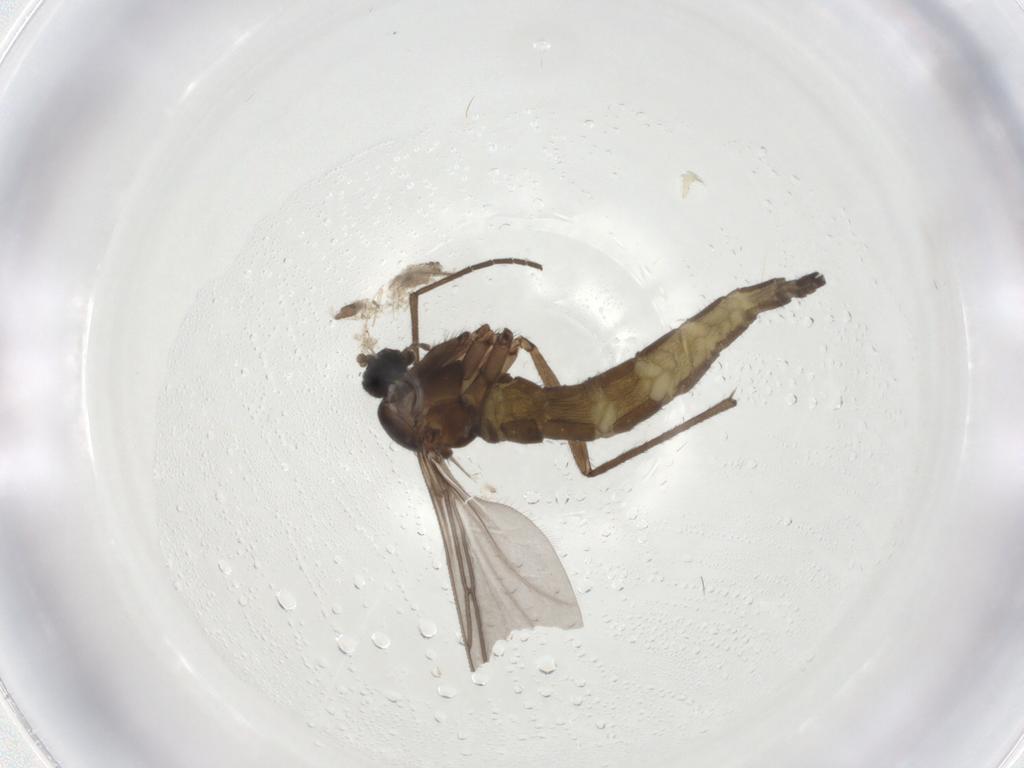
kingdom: Animalia
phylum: Arthropoda
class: Insecta
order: Diptera
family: Sciaridae
